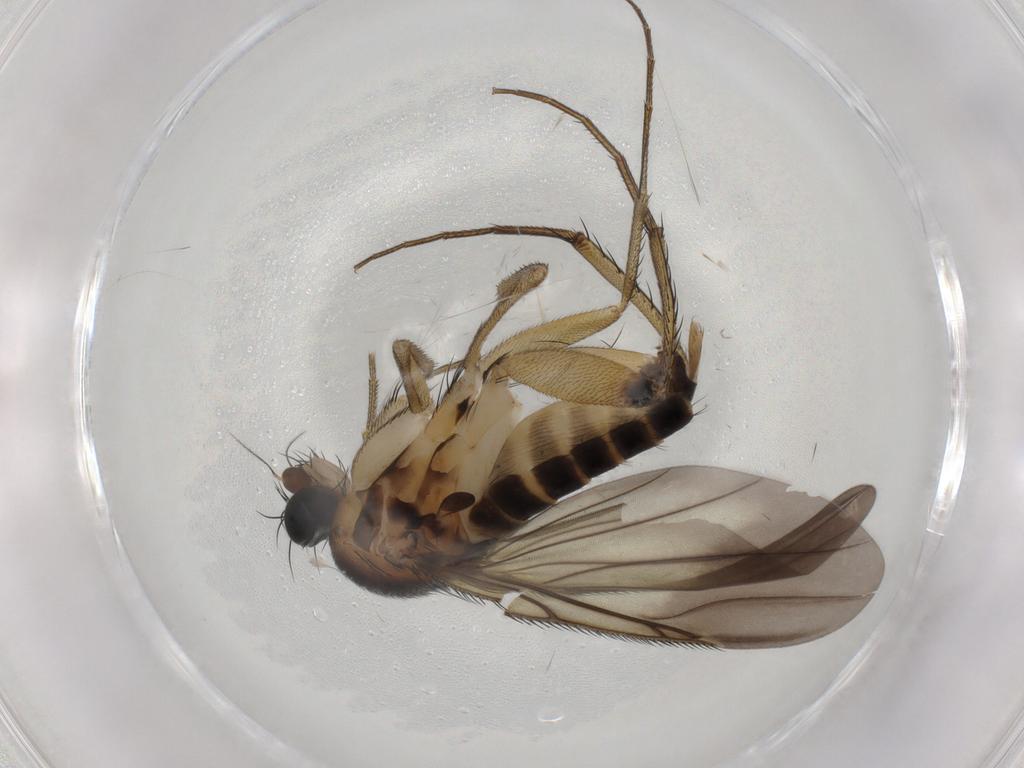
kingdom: Animalia
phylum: Arthropoda
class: Insecta
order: Diptera
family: Phoridae
